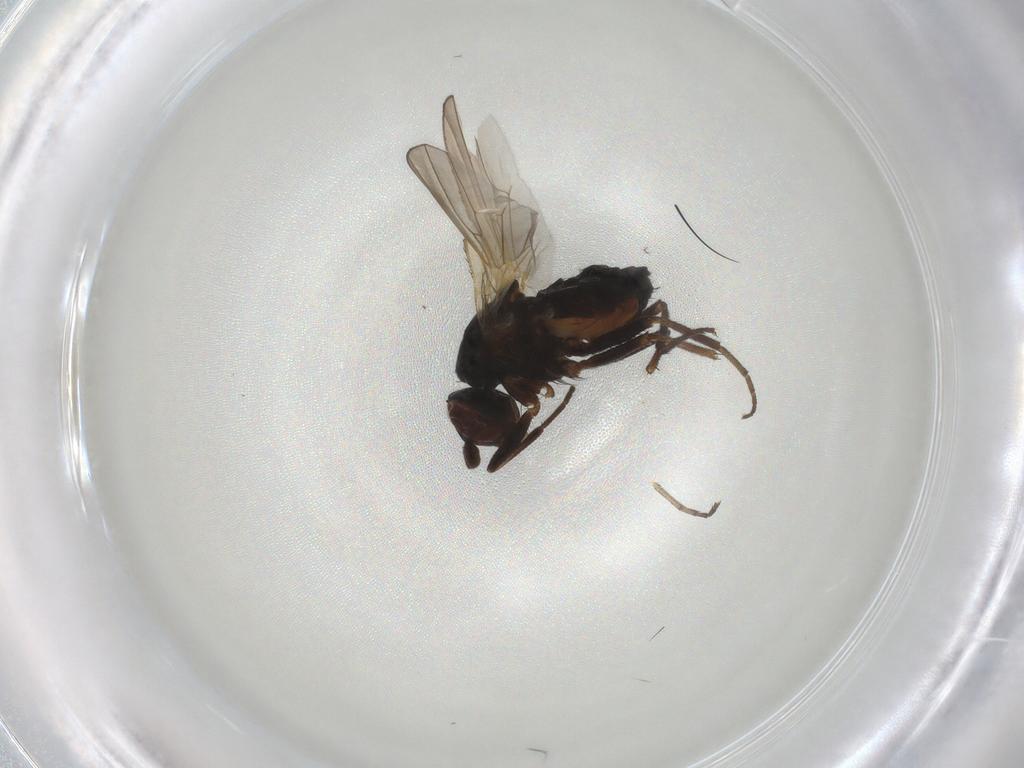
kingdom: Animalia
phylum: Arthropoda
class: Insecta
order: Diptera
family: Heleomyzidae
